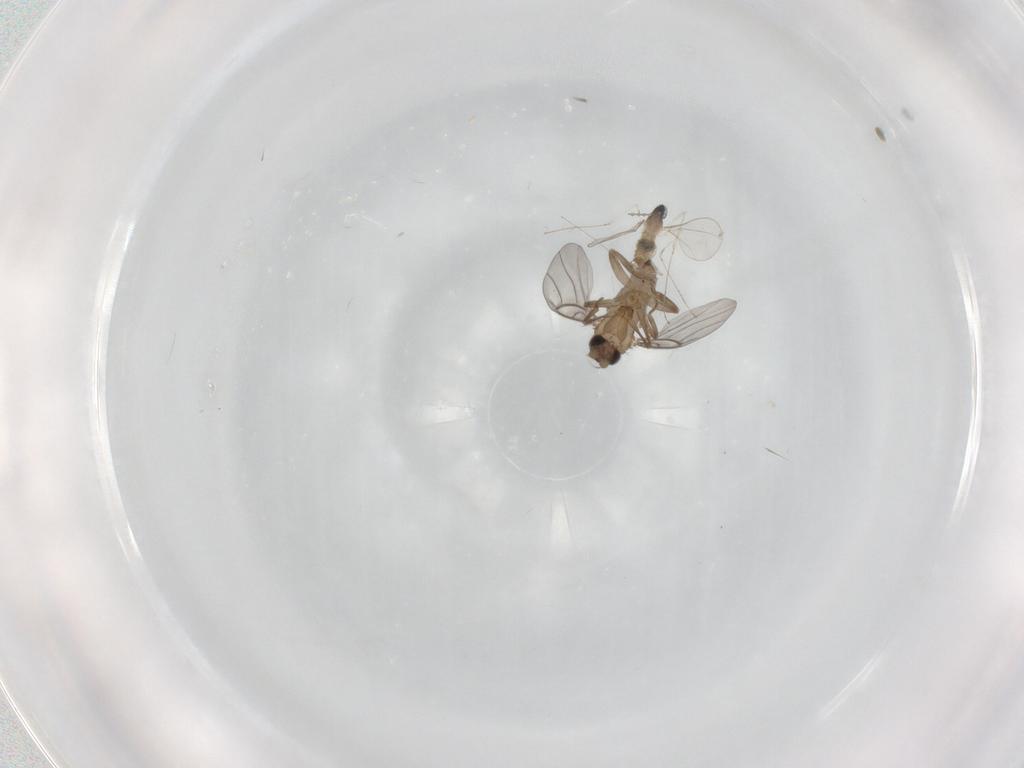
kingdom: Animalia
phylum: Arthropoda
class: Insecta
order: Diptera
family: Cecidomyiidae
